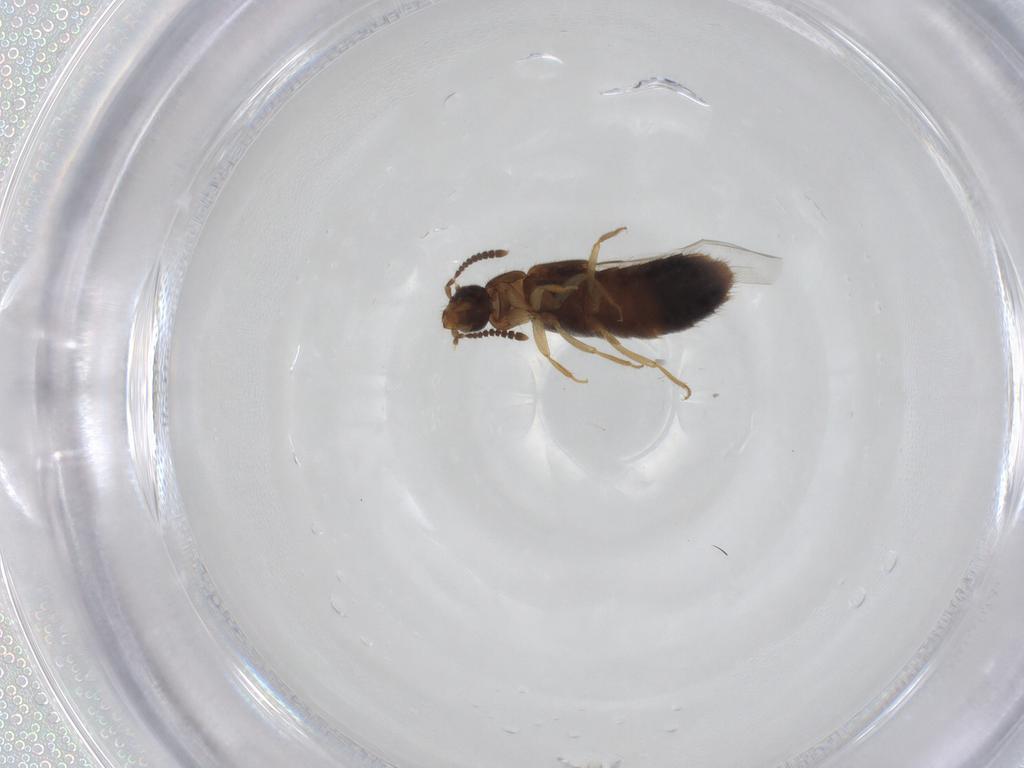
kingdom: Animalia
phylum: Arthropoda
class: Insecta
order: Coleoptera
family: Staphylinidae
